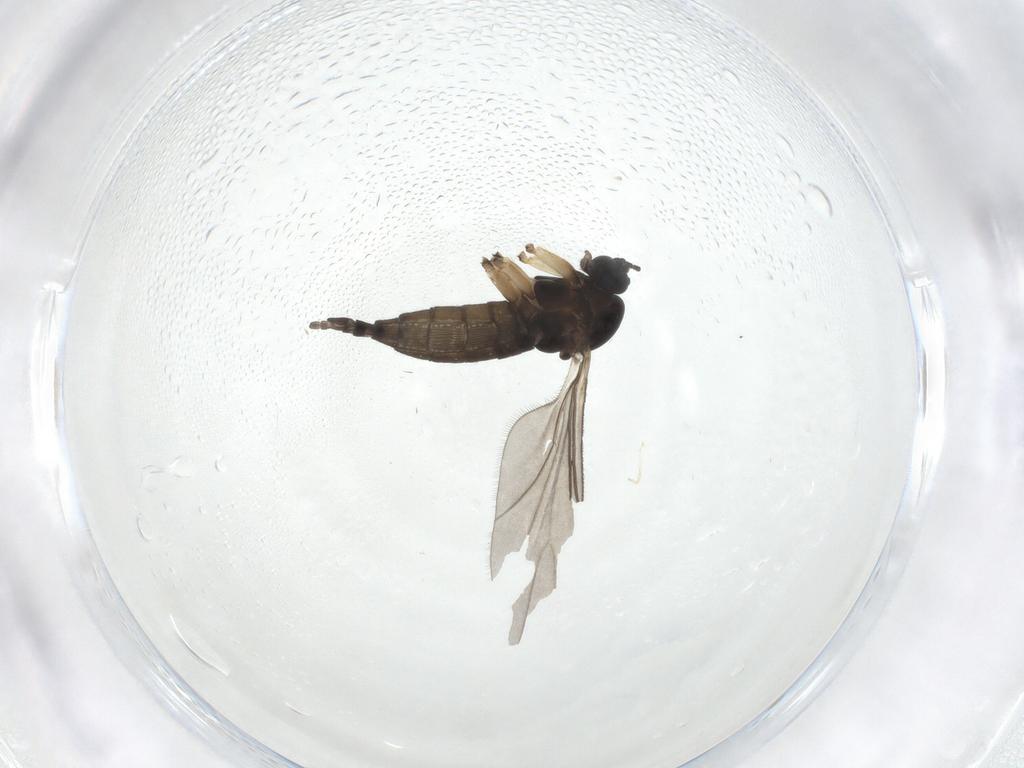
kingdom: Animalia
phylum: Arthropoda
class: Insecta
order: Diptera
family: Sciaridae
